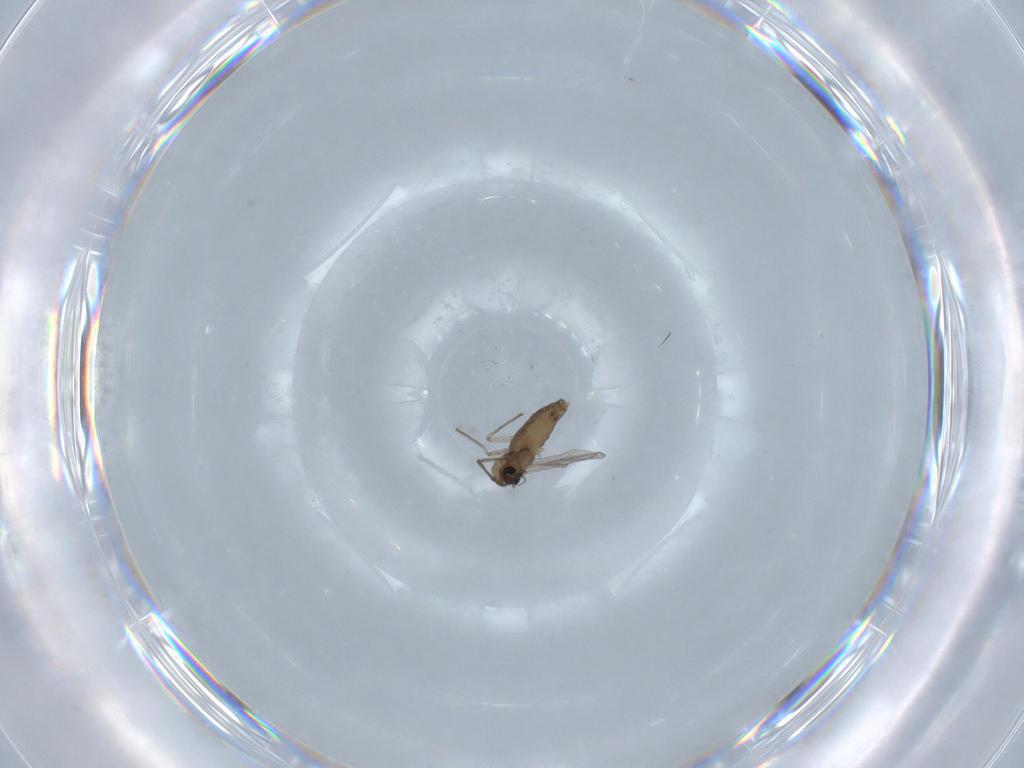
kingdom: Animalia
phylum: Arthropoda
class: Insecta
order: Diptera
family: Chironomidae
